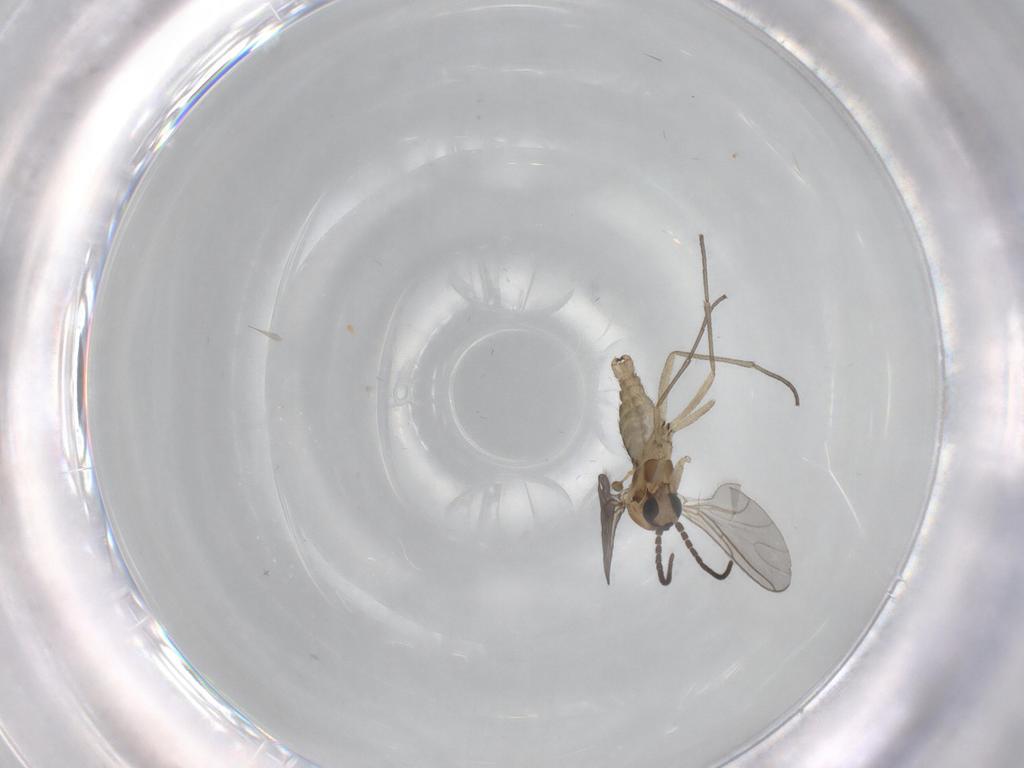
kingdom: Animalia
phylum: Arthropoda
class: Insecta
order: Diptera
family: Sciaridae
